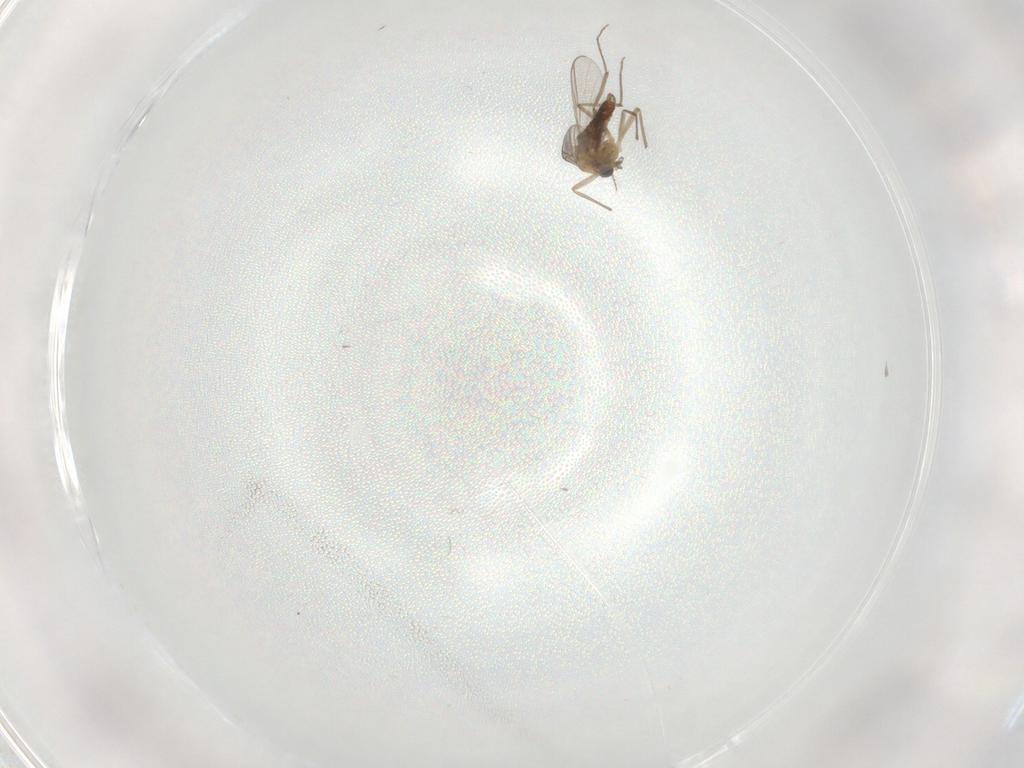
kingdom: Animalia
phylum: Arthropoda
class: Insecta
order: Diptera
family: Chironomidae
